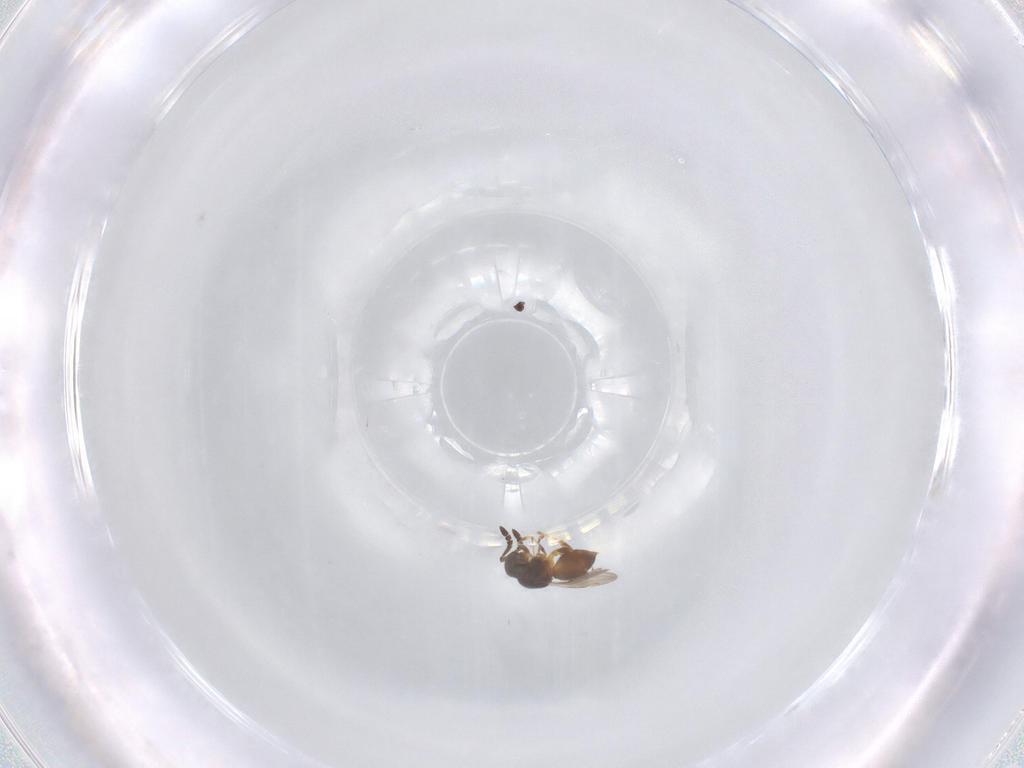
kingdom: Animalia
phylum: Arthropoda
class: Insecta
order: Hymenoptera
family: Ceraphronidae
